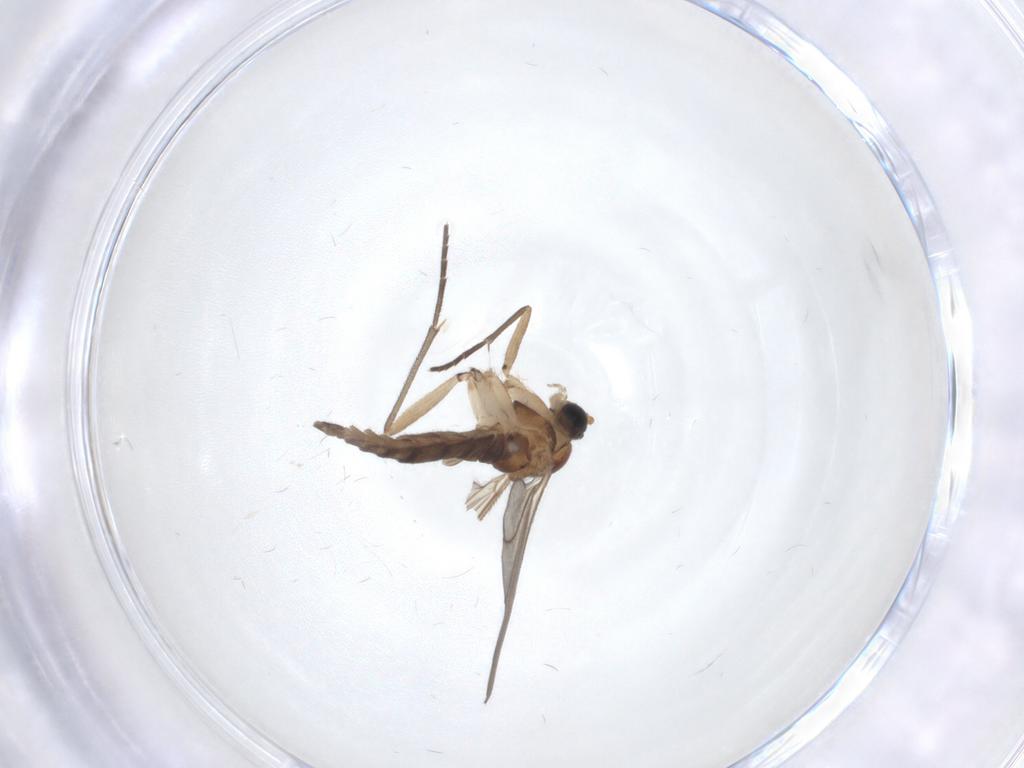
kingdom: Animalia
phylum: Arthropoda
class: Insecta
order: Diptera
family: Sciaridae
